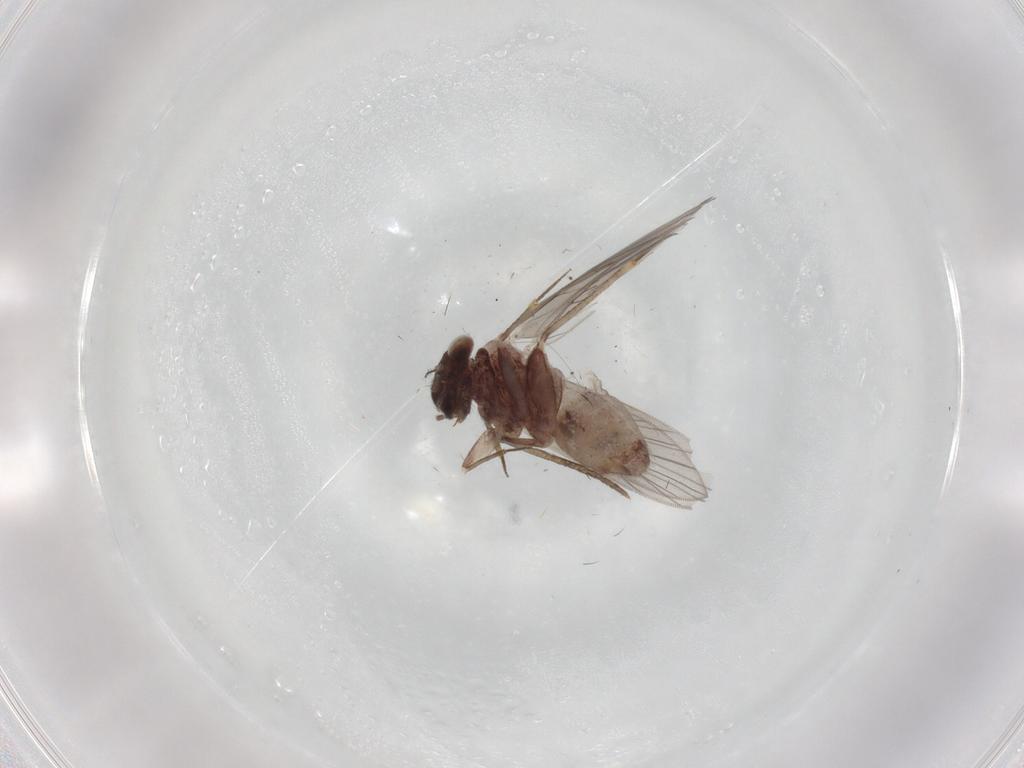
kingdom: Animalia
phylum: Arthropoda
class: Insecta
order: Psocodea
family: Lepidopsocidae
